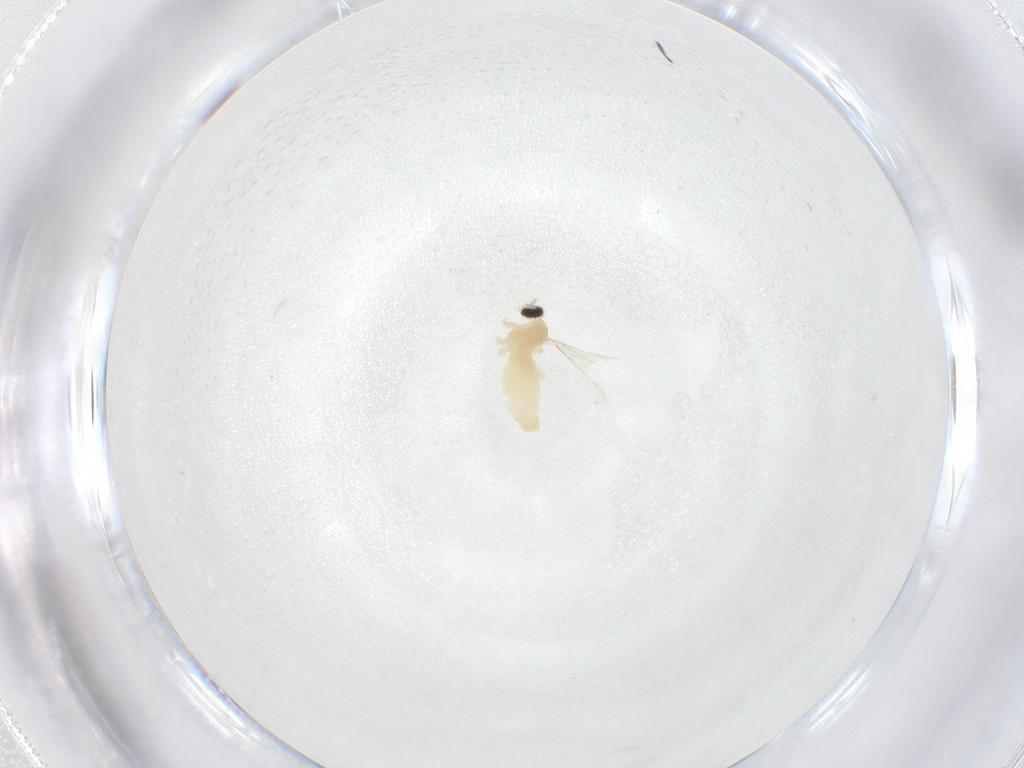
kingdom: Animalia
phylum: Arthropoda
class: Insecta
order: Diptera
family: Cecidomyiidae
